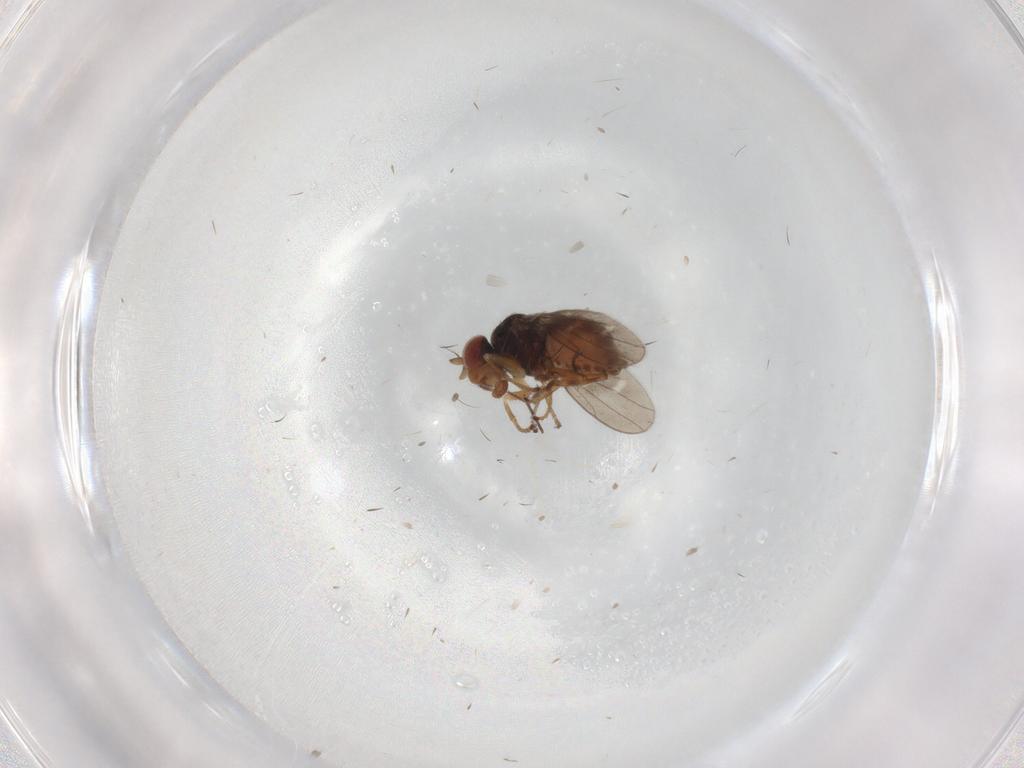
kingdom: Animalia
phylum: Arthropoda
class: Insecta
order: Diptera
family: Ephydridae
